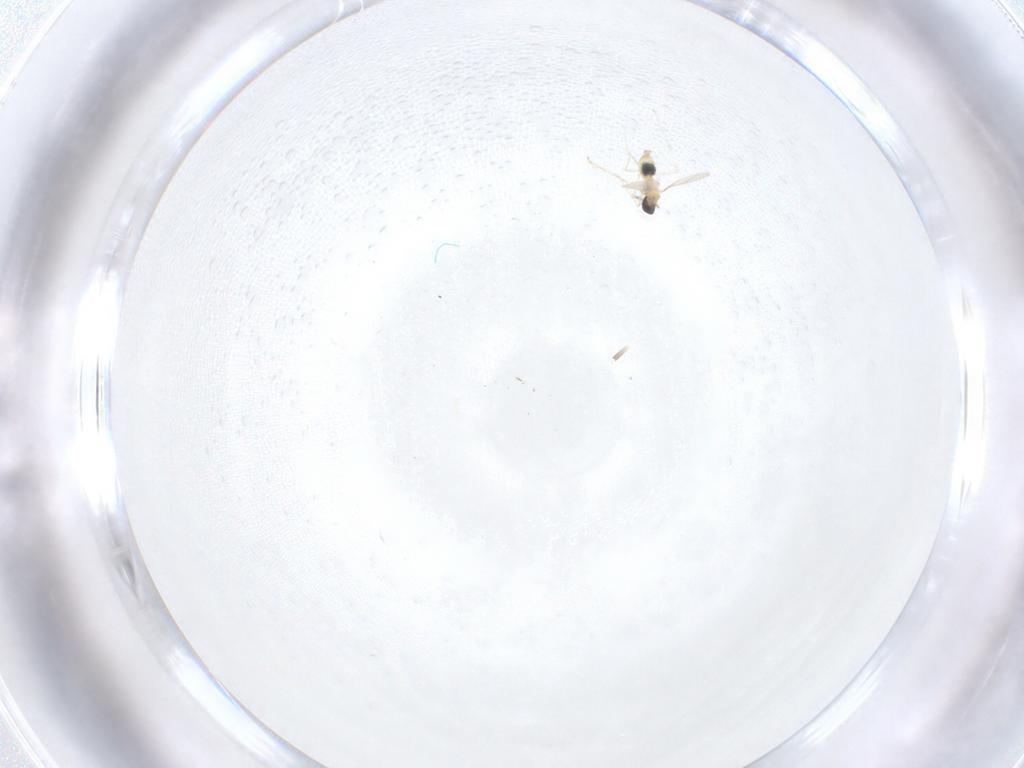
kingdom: Animalia
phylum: Arthropoda
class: Insecta
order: Diptera
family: Cecidomyiidae
